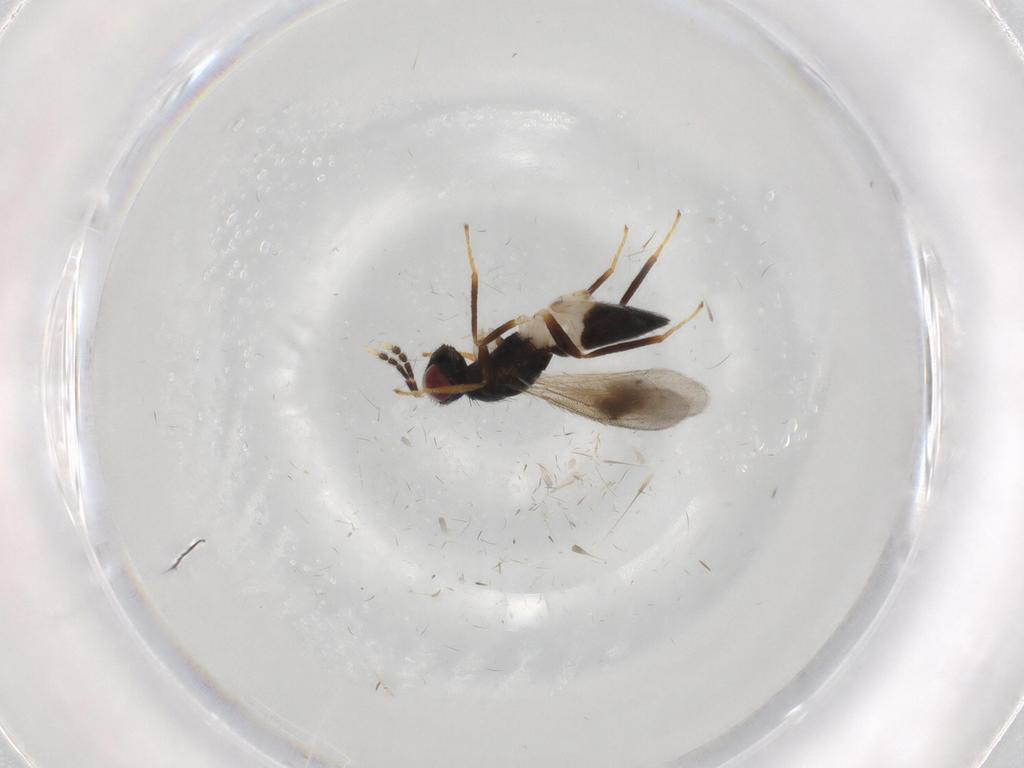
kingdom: Animalia
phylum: Arthropoda
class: Insecta
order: Hymenoptera
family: Eulophidae
